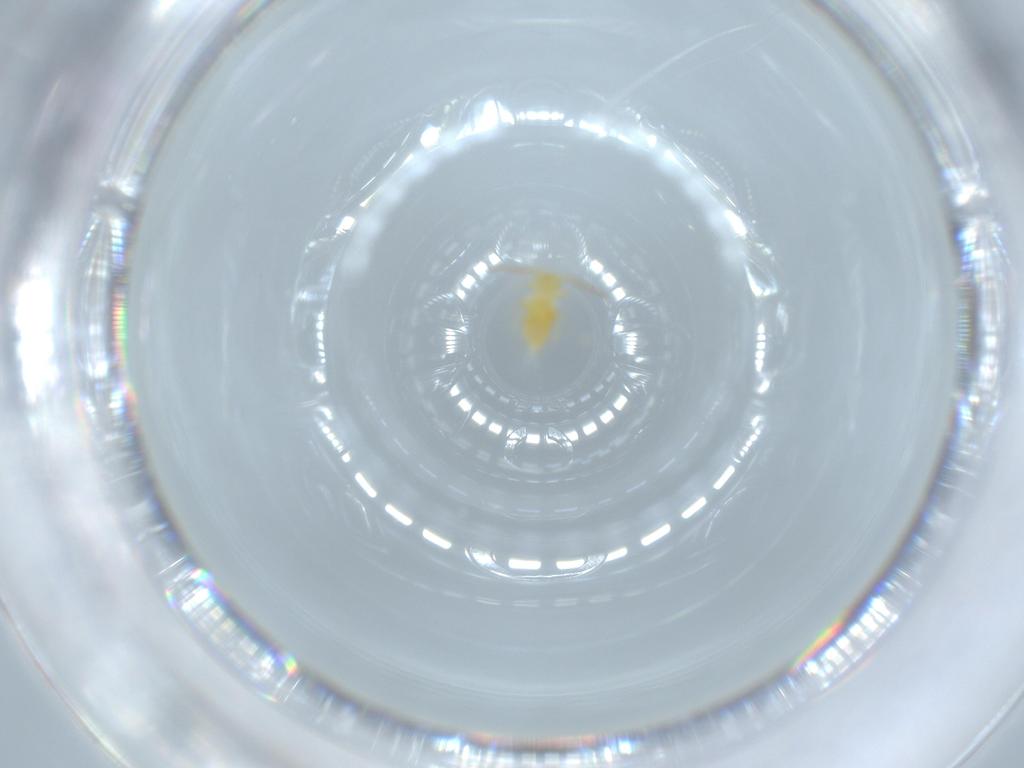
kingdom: Animalia
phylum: Arthropoda
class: Collembola
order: Symphypleona
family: Bourletiellidae
